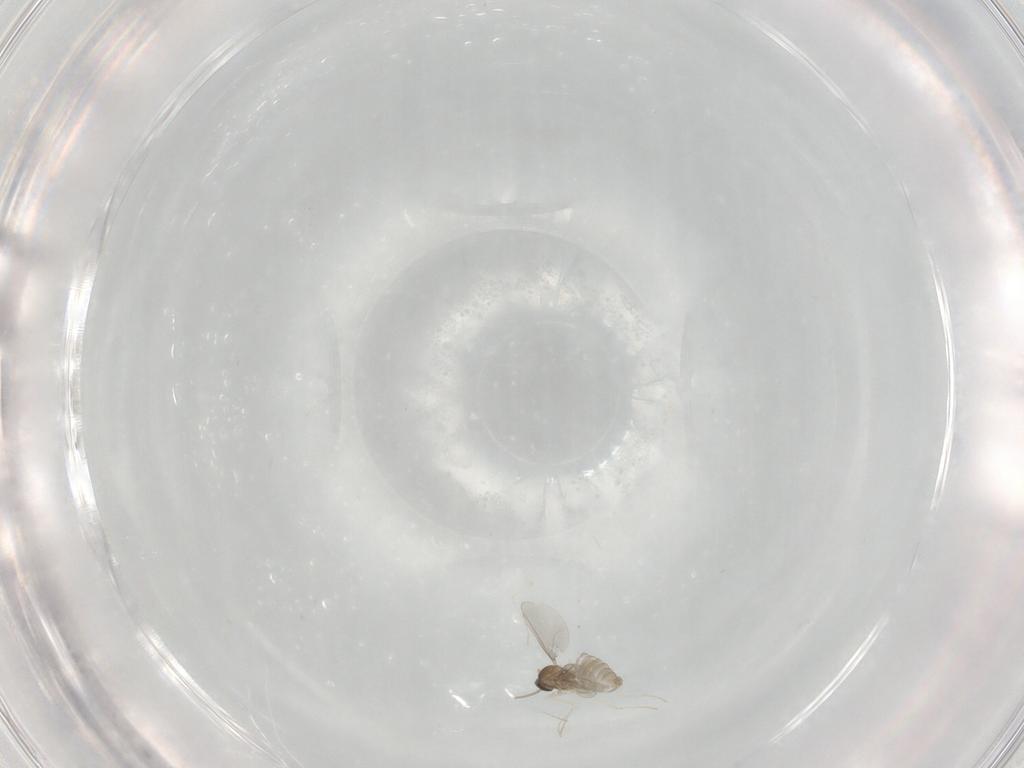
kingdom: Animalia
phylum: Arthropoda
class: Insecta
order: Diptera
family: Cecidomyiidae
